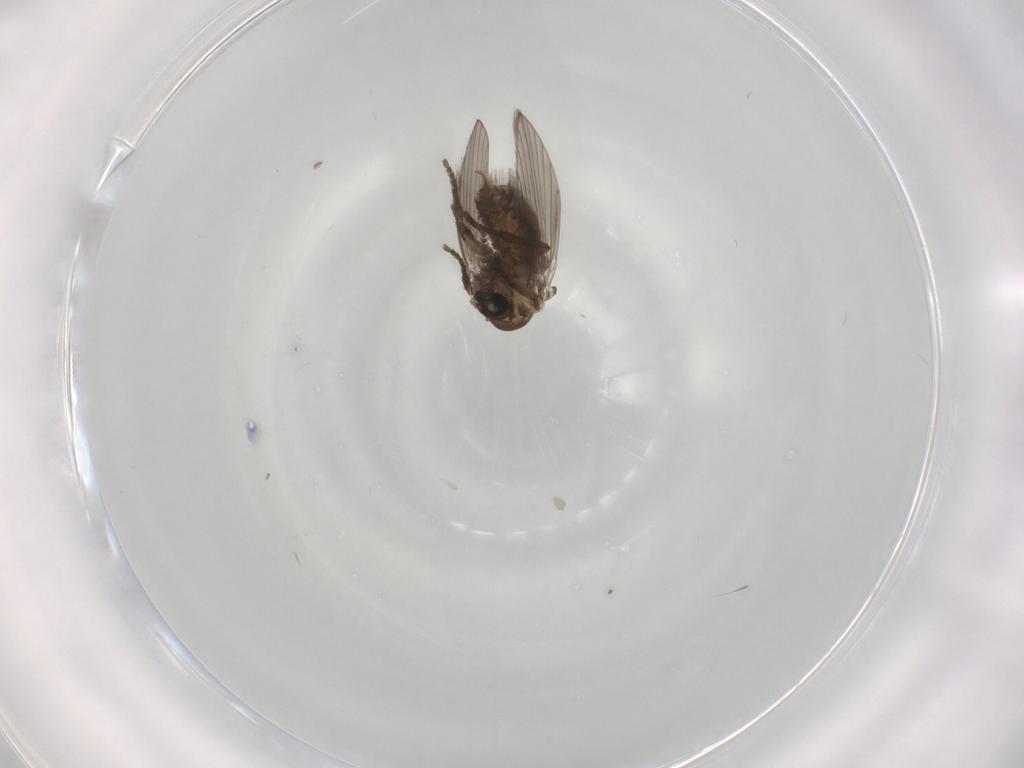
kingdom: Animalia
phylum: Arthropoda
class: Insecta
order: Diptera
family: Psychodidae
